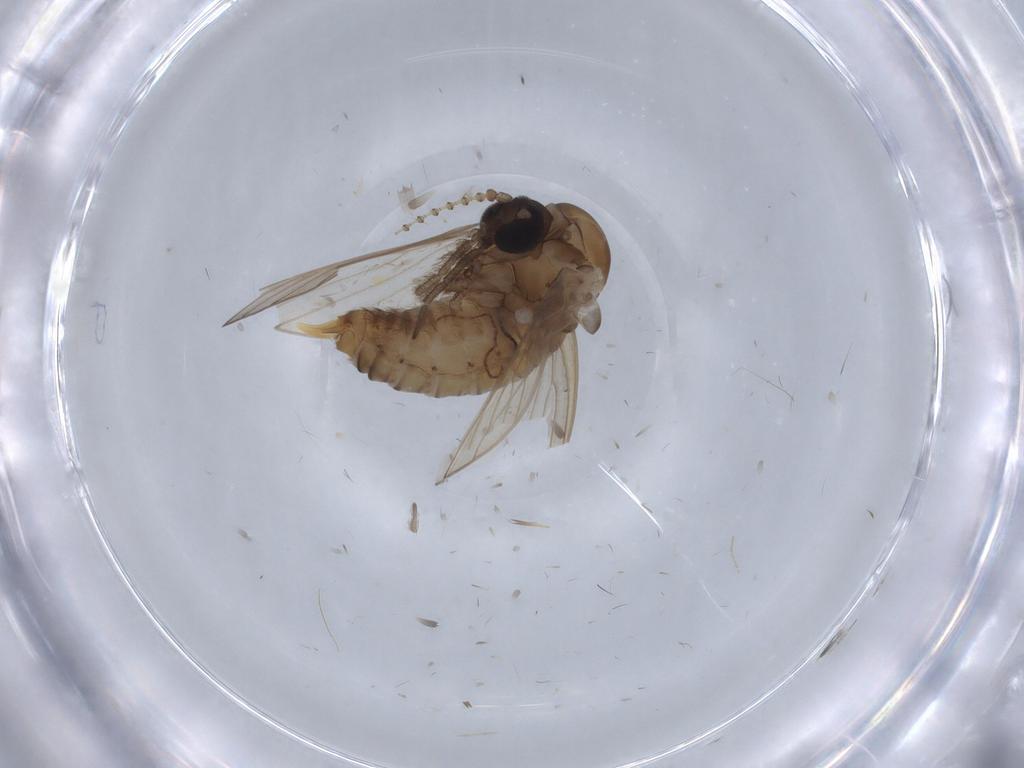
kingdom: Animalia
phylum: Arthropoda
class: Insecta
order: Diptera
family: Psychodidae
